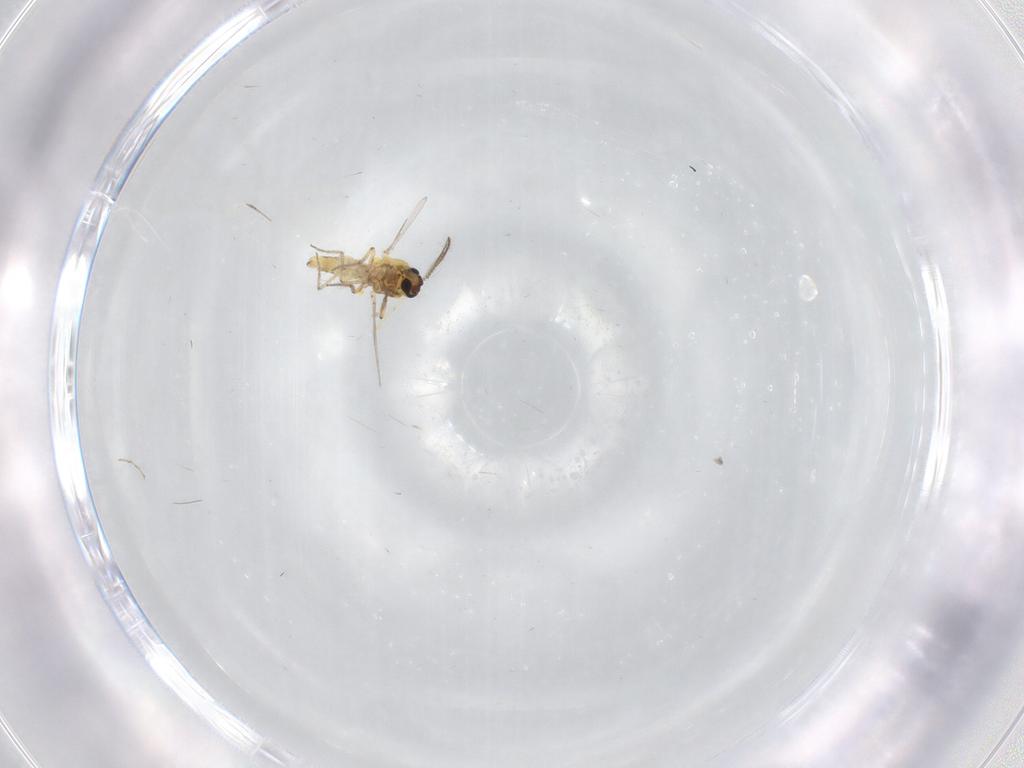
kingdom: Animalia
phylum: Arthropoda
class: Insecta
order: Diptera
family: Ceratopogonidae
